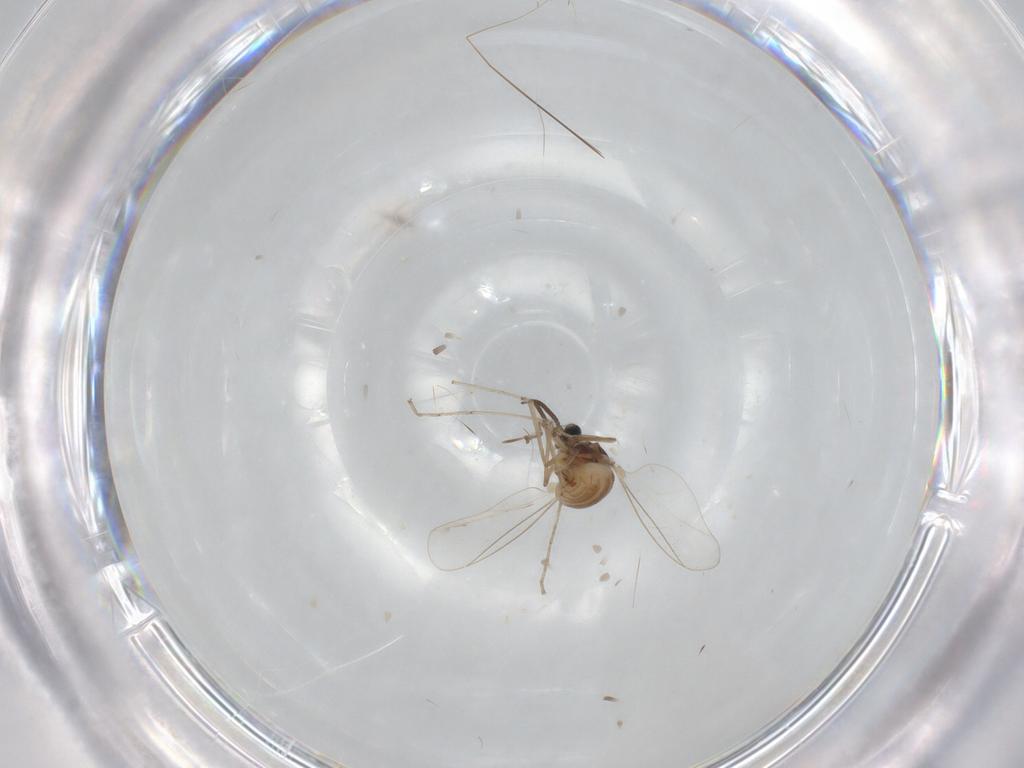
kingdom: Animalia
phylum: Arthropoda
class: Insecta
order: Diptera
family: Cecidomyiidae
